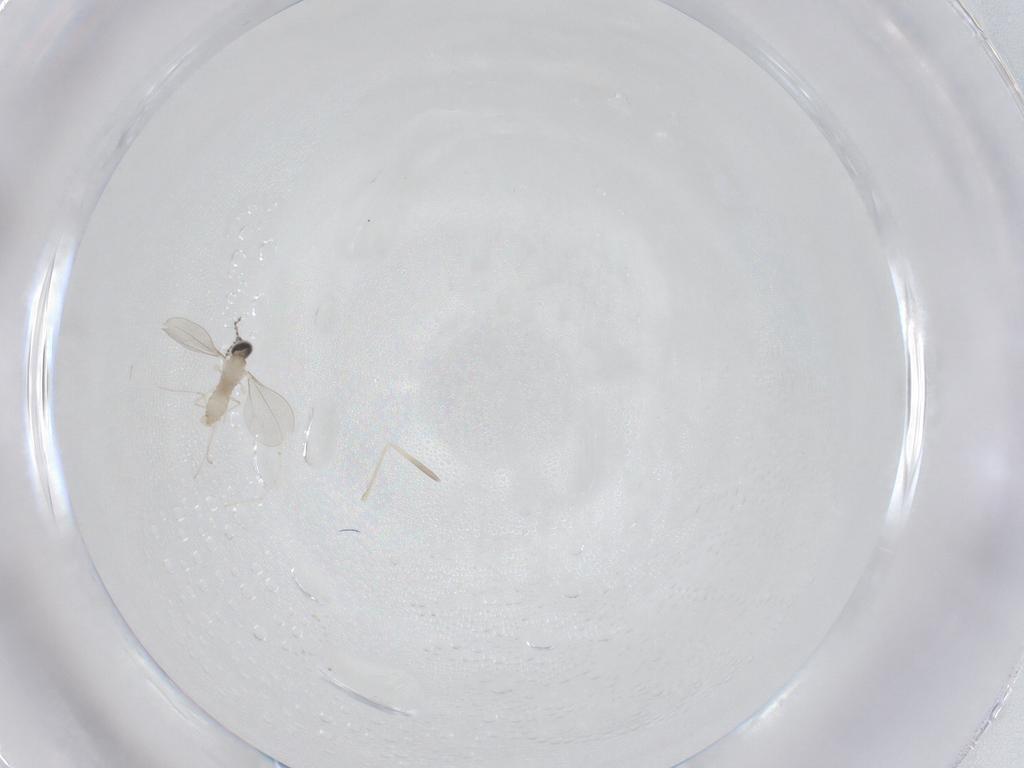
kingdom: Animalia
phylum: Arthropoda
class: Insecta
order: Diptera
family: Cecidomyiidae
